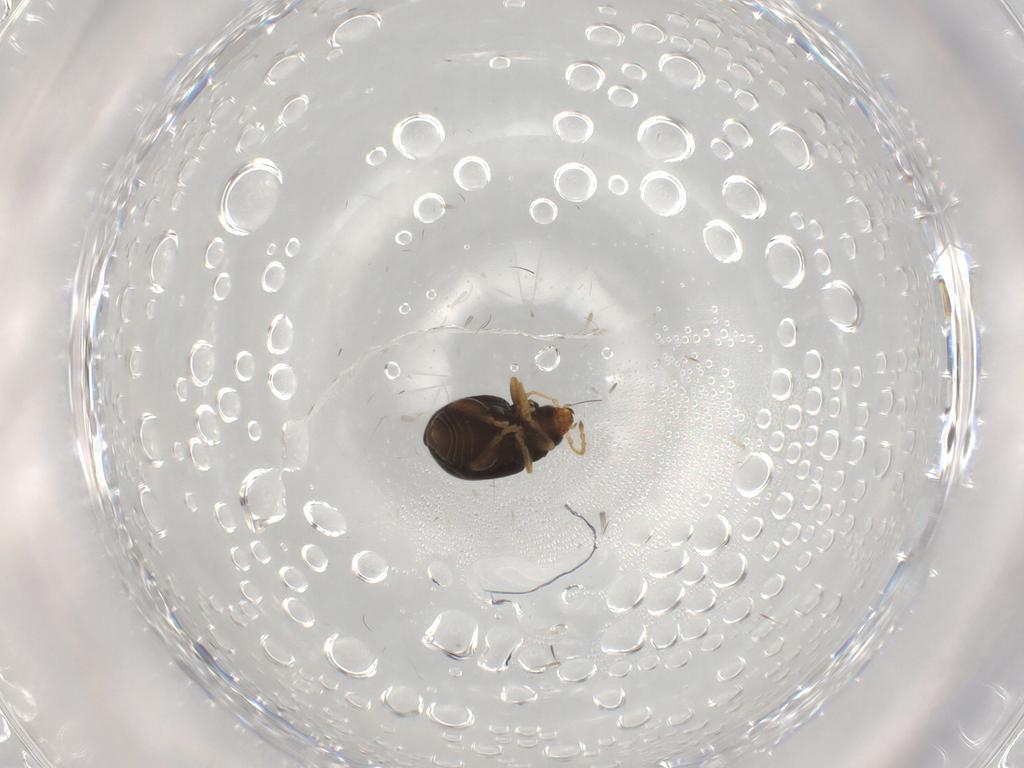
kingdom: Animalia
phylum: Arthropoda
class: Insecta
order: Coleoptera
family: Chrysomelidae
